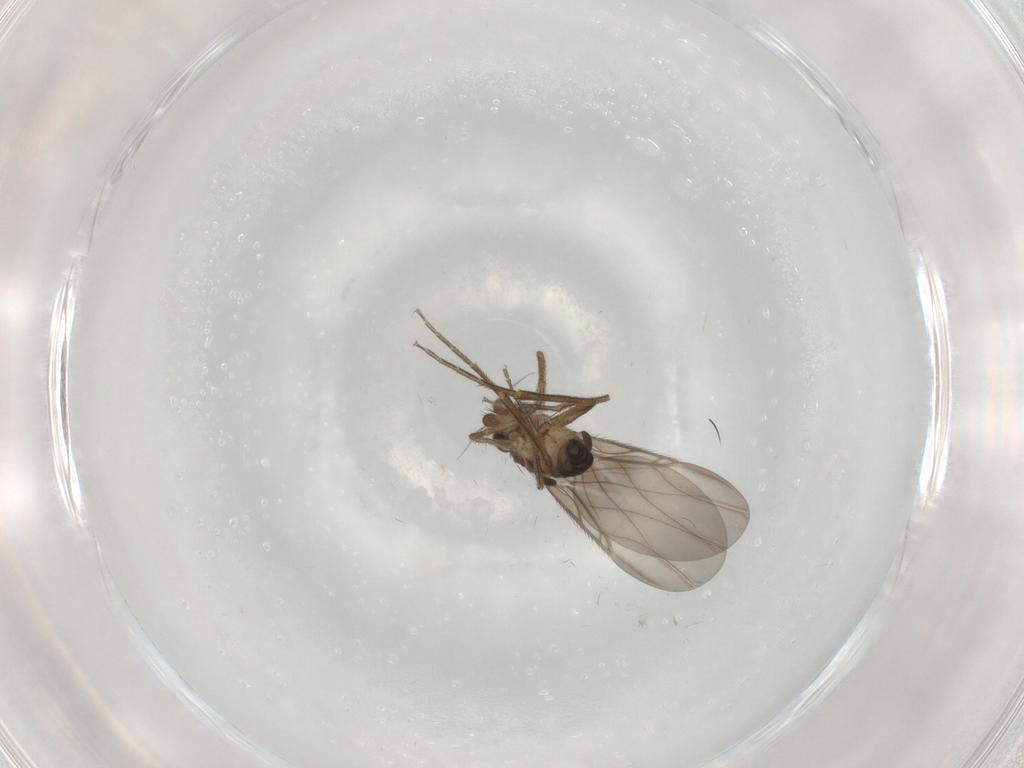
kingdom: Animalia
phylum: Arthropoda
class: Insecta
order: Diptera
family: Phoridae
